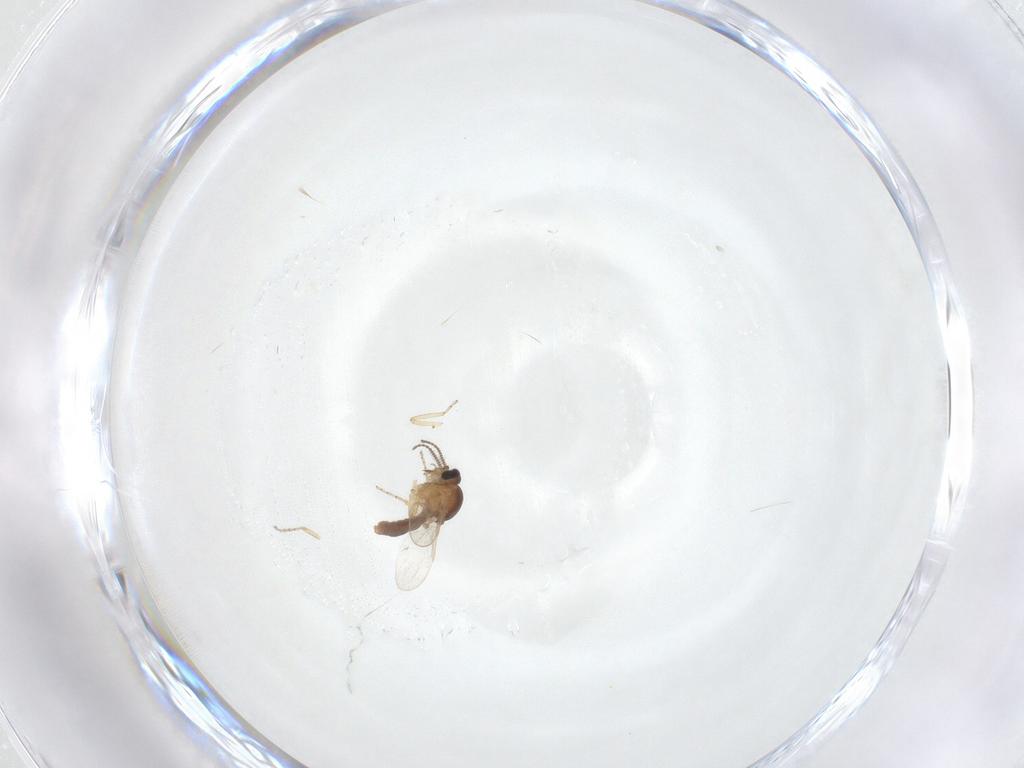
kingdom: Animalia
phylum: Arthropoda
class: Insecta
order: Diptera
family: Ceratopogonidae
